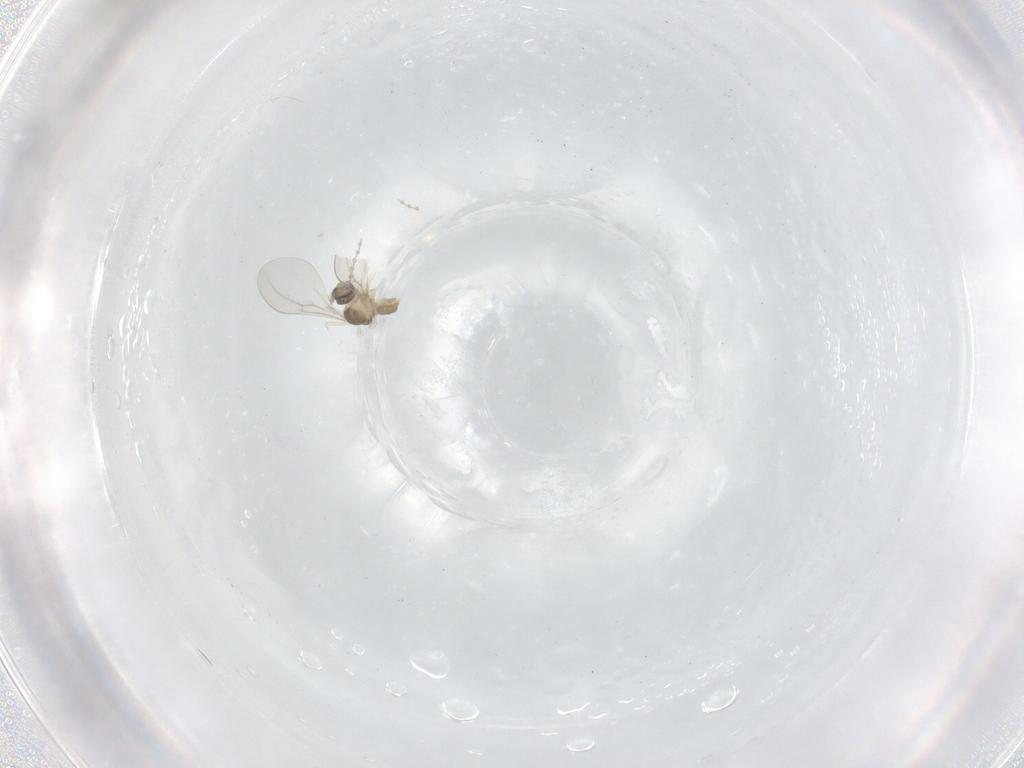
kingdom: Animalia
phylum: Arthropoda
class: Insecta
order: Diptera
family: Cecidomyiidae
